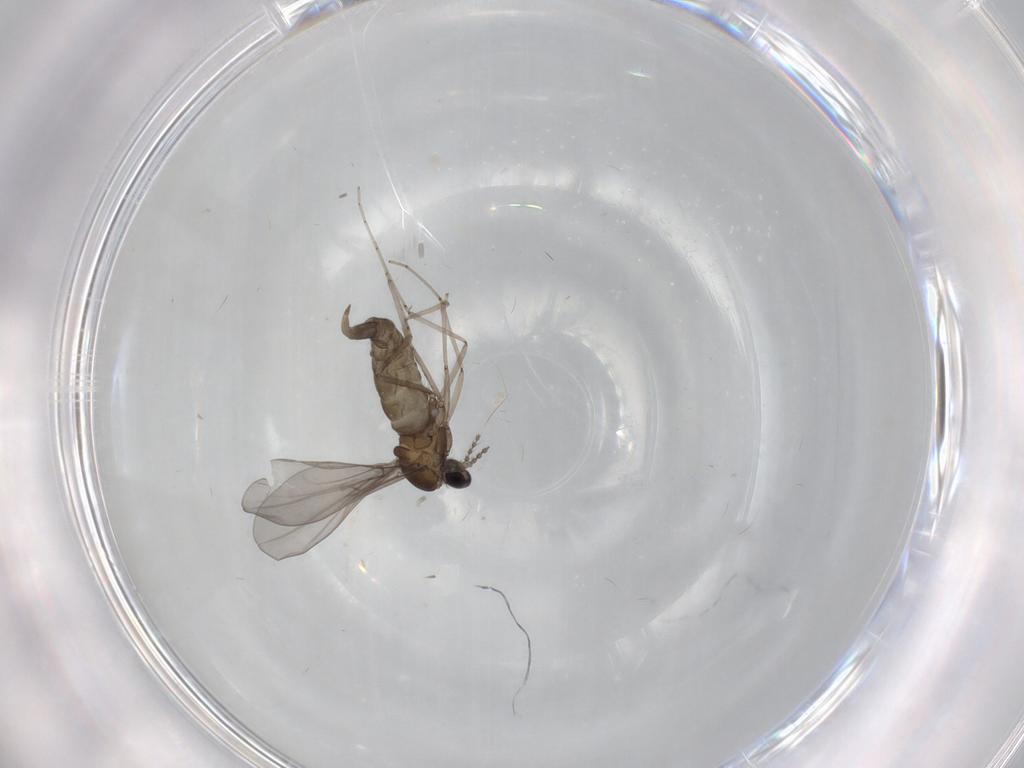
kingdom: Animalia
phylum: Arthropoda
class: Insecta
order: Diptera
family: Cecidomyiidae
